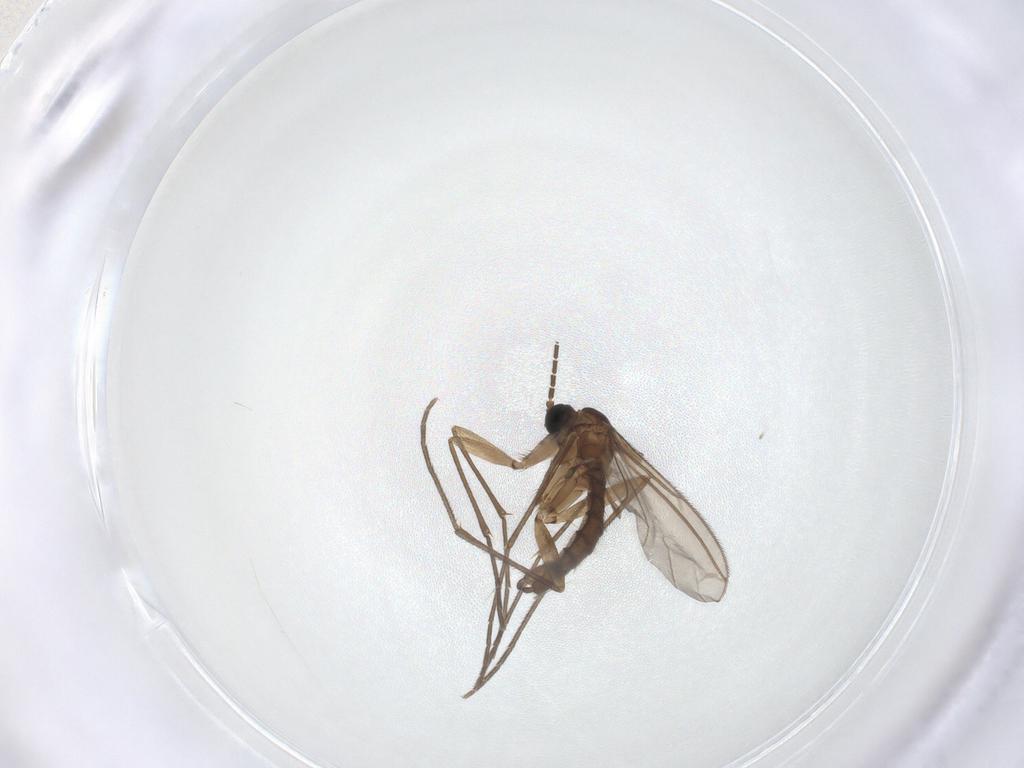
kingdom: Animalia
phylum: Arthropoda
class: Insecta
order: Diptera
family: Sciaridae
